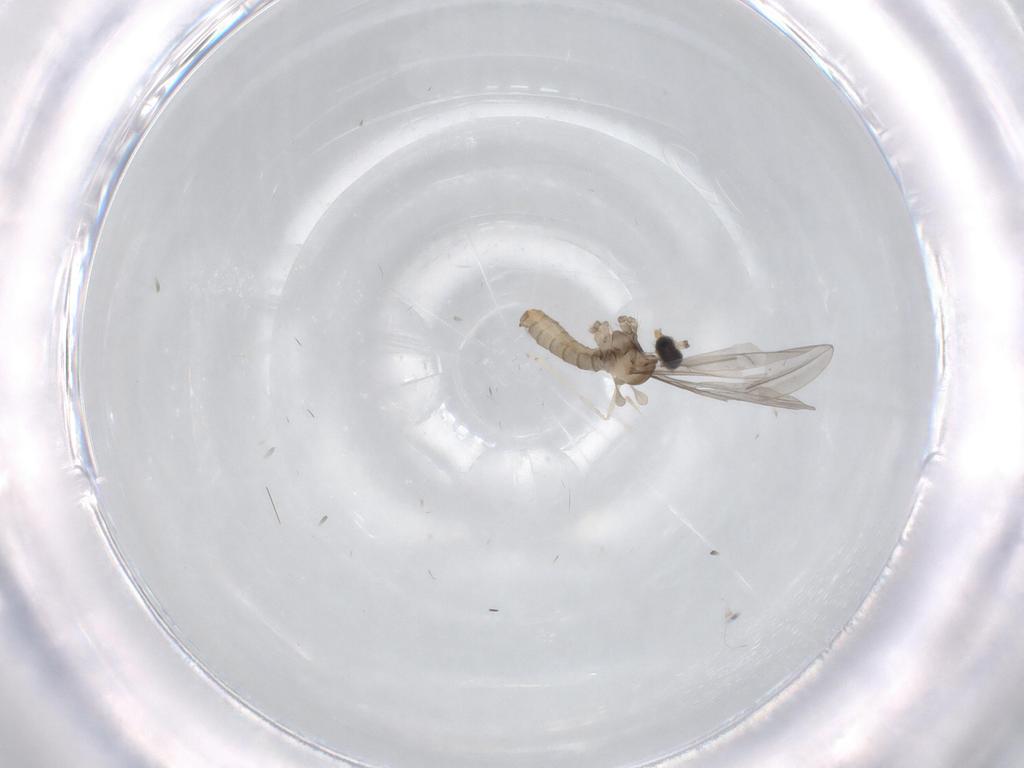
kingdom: Animalia
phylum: Arthropoda
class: Insecta
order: Diptera
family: Cecidomyiidae
